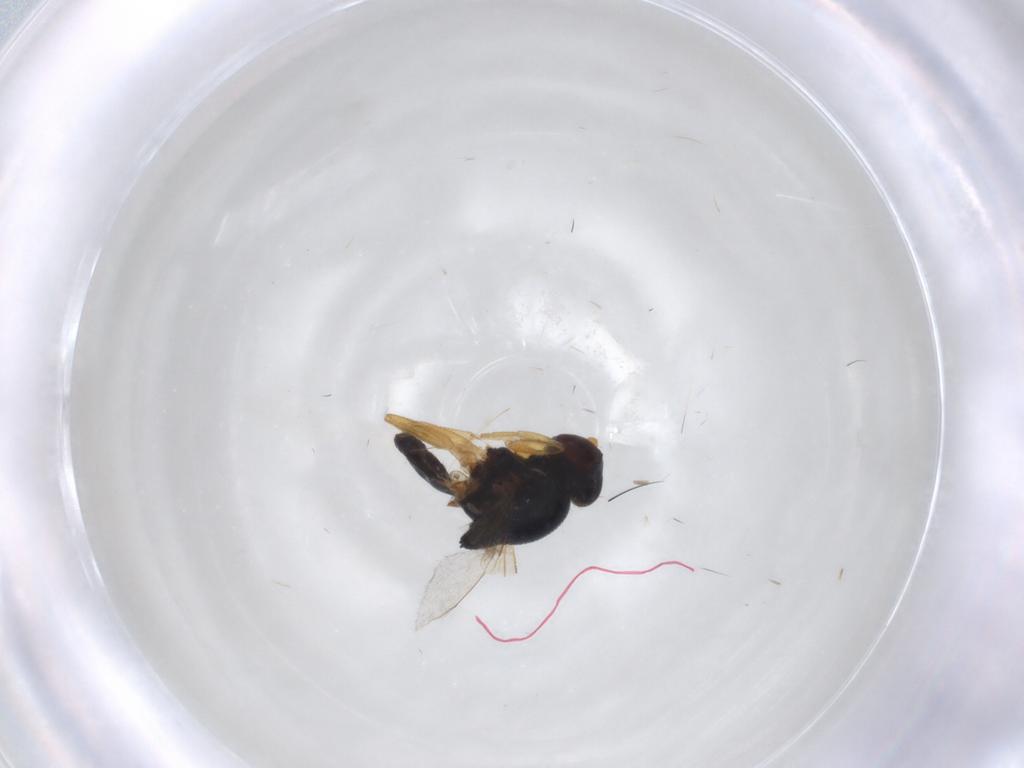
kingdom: Animalia
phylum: Arthropoda
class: Insecta
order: Diptera
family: Chloropidae
